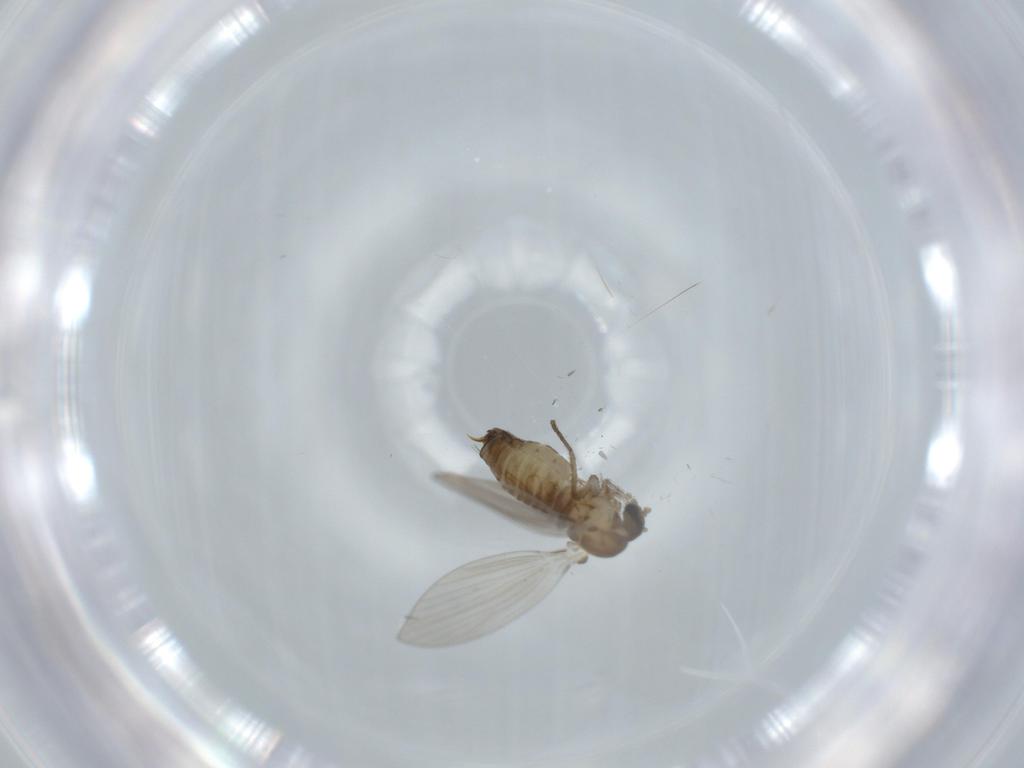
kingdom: Animalia
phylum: Arthropoda
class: Insecta
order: Diptera
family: Psychodidae
